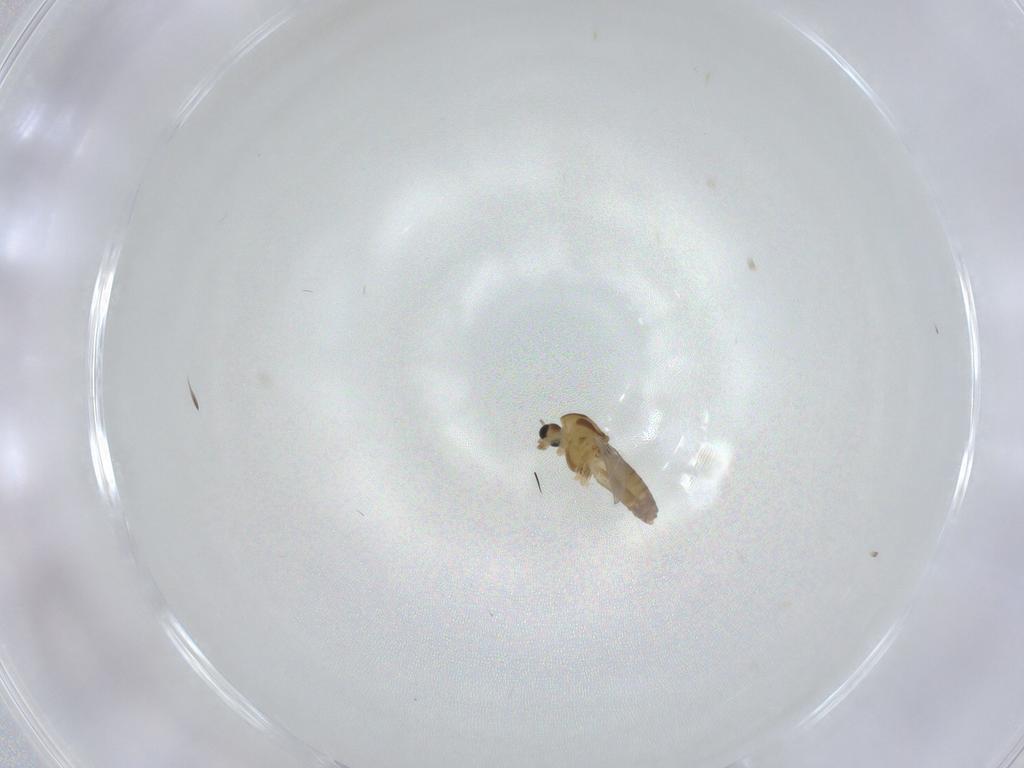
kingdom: Animalia
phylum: Arthropoda
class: Insecta
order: Diptera
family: Chironomidae
